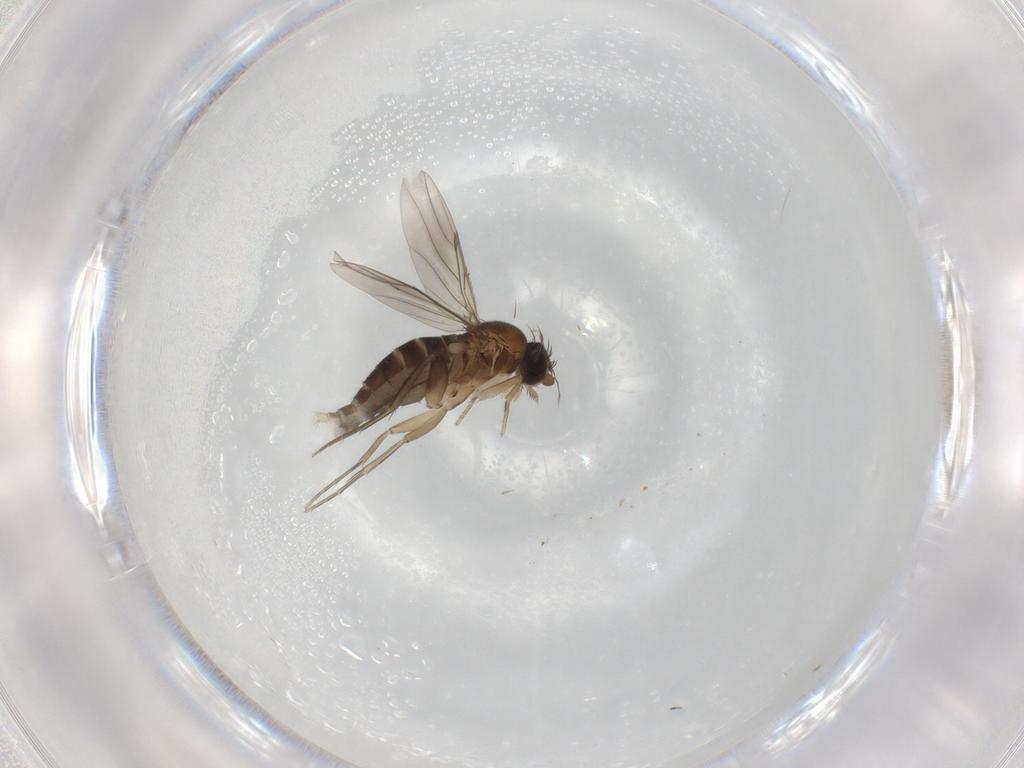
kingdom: Animalia
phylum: Arthropoda
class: Insecta
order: Diptera
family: Phoridae
